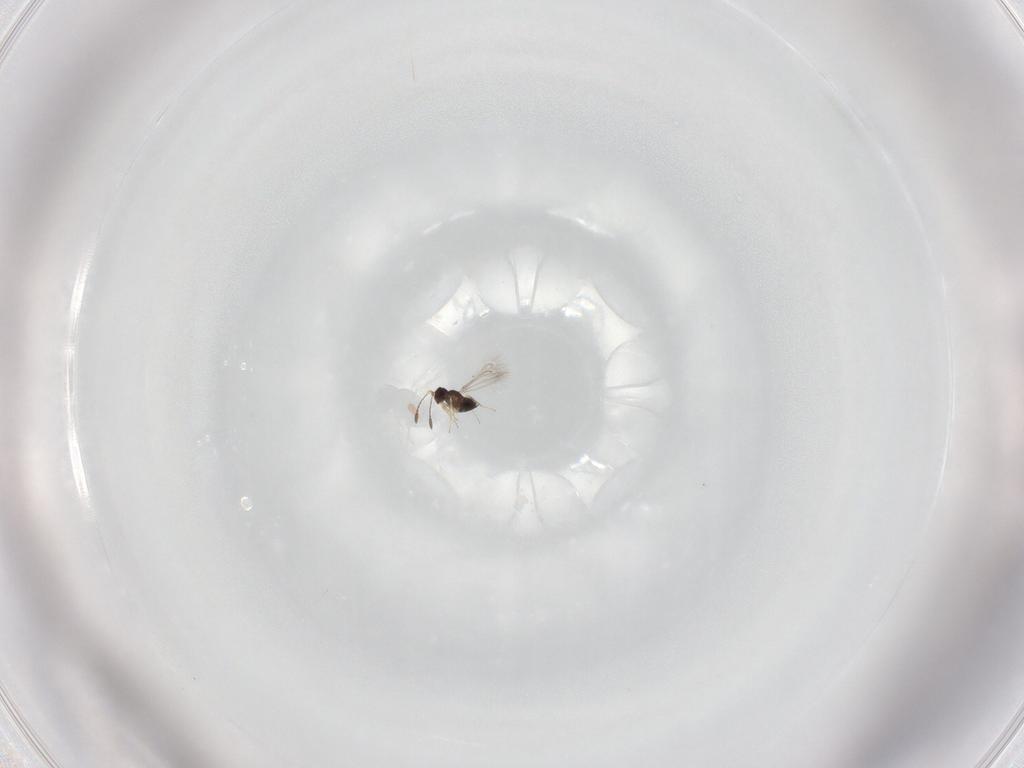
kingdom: Animalia
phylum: Arthropoda
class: Insecta
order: Hymenoptera
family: Mymaridae
